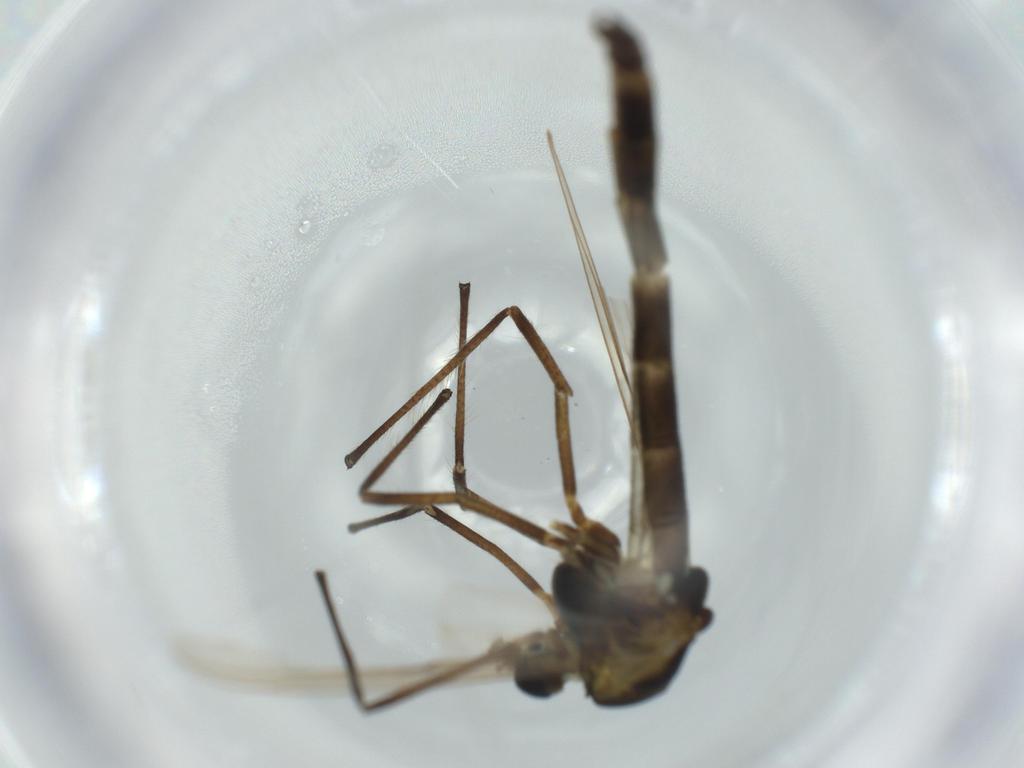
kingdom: Animalia
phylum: Arthropoda
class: Insecta
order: Diptera
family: Chironomidae
